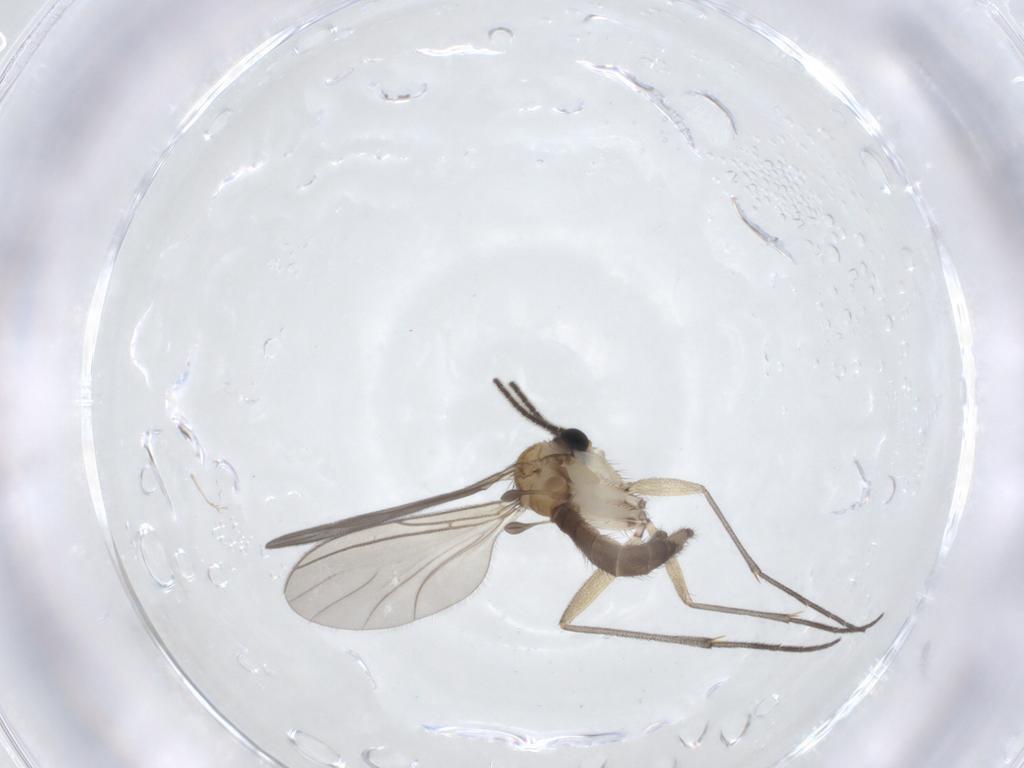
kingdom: Animalia
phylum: Arthropoda
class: Insecta
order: Diptera
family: Sciaridae
